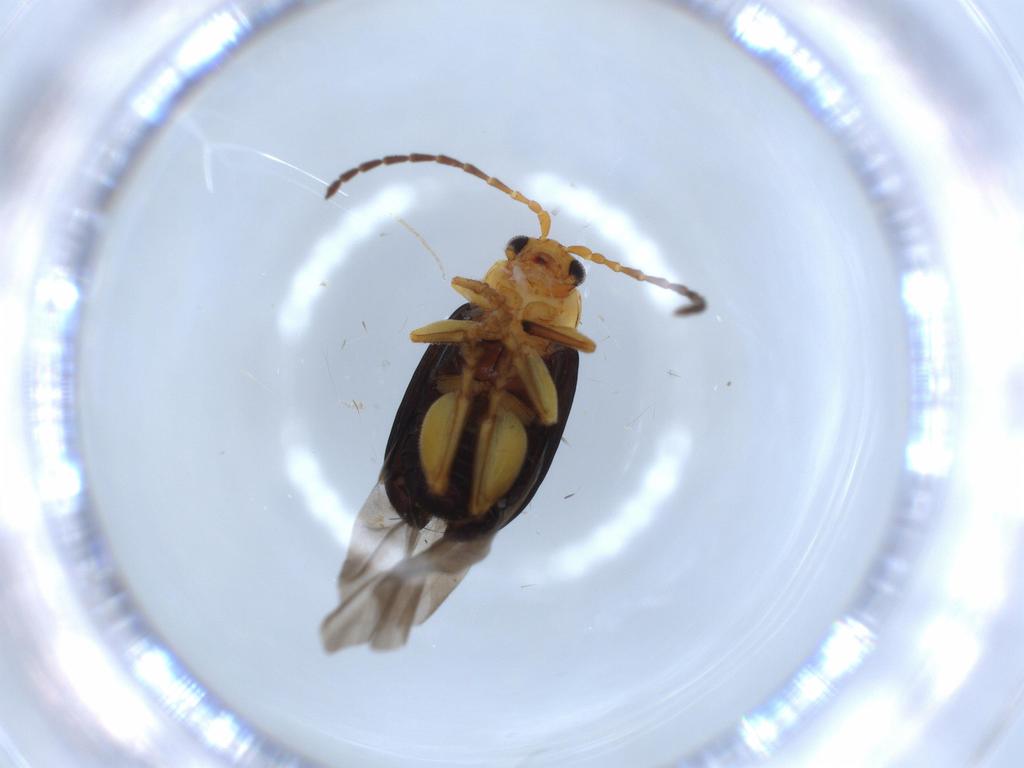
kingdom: Animalia
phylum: Arthropoda
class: Insecta
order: Coleoptera
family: Chrysomelidae
